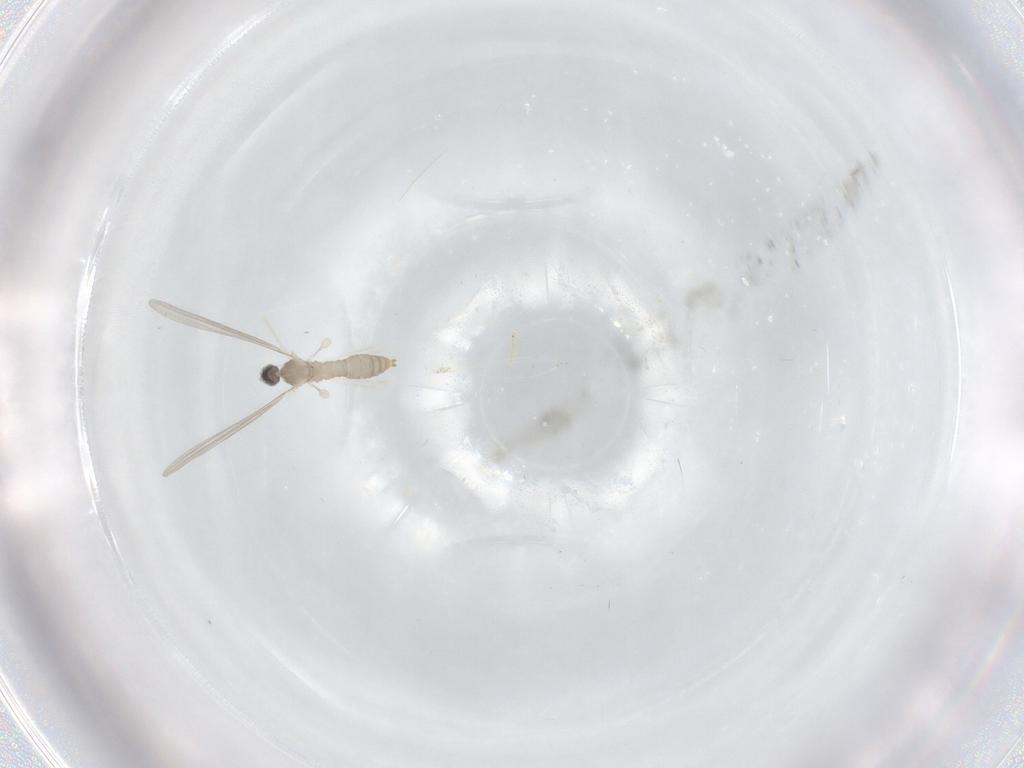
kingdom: Animalia
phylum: Arthropoda
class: Insecta
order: Diptera
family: Cecidomyiidae
